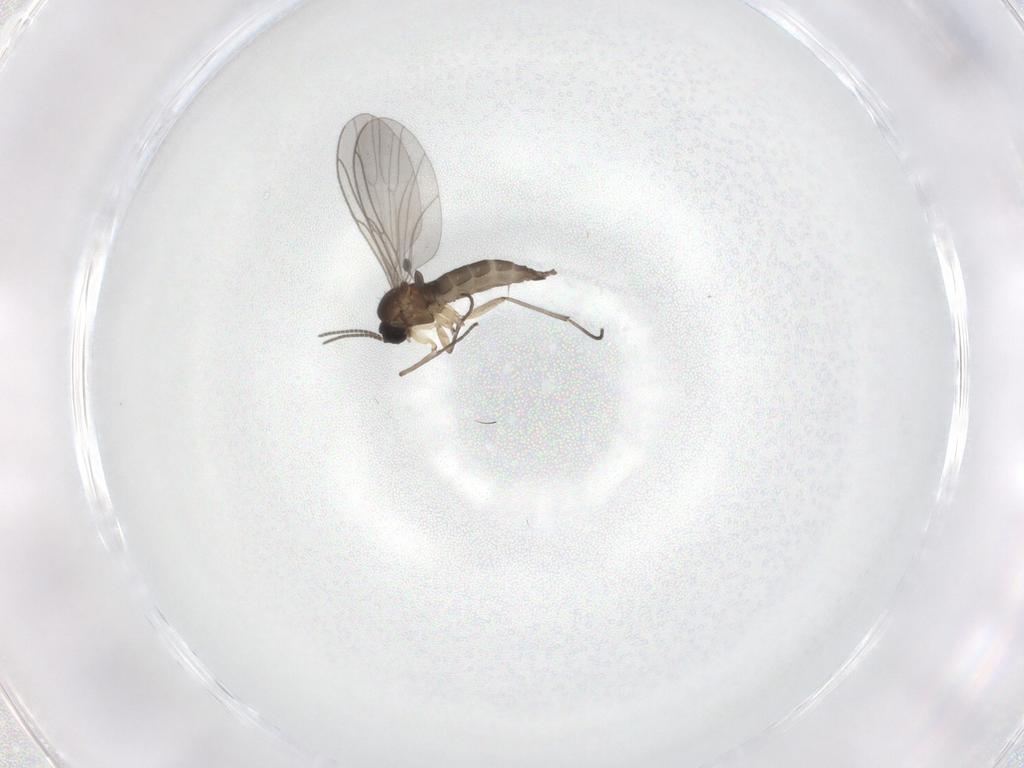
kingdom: Animalia
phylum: Arthropoda
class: Insecta
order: Diptera
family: Sciaridae
